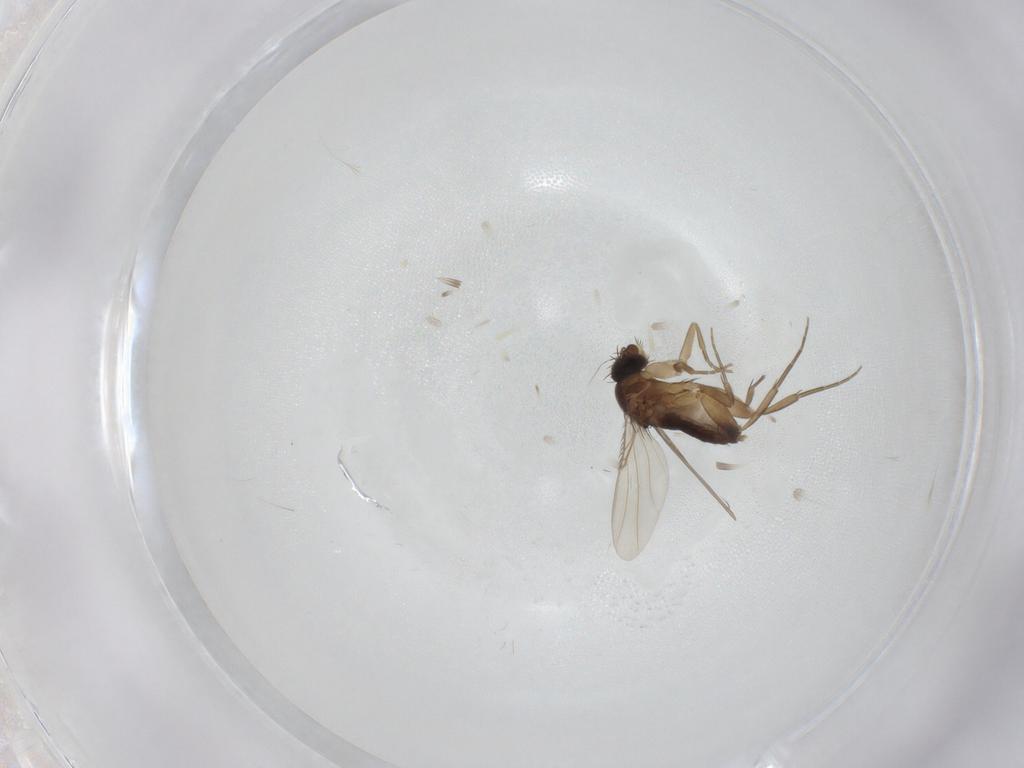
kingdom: Animalia
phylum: Arthropoda
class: Insecta
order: Diptera
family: Phoridae
